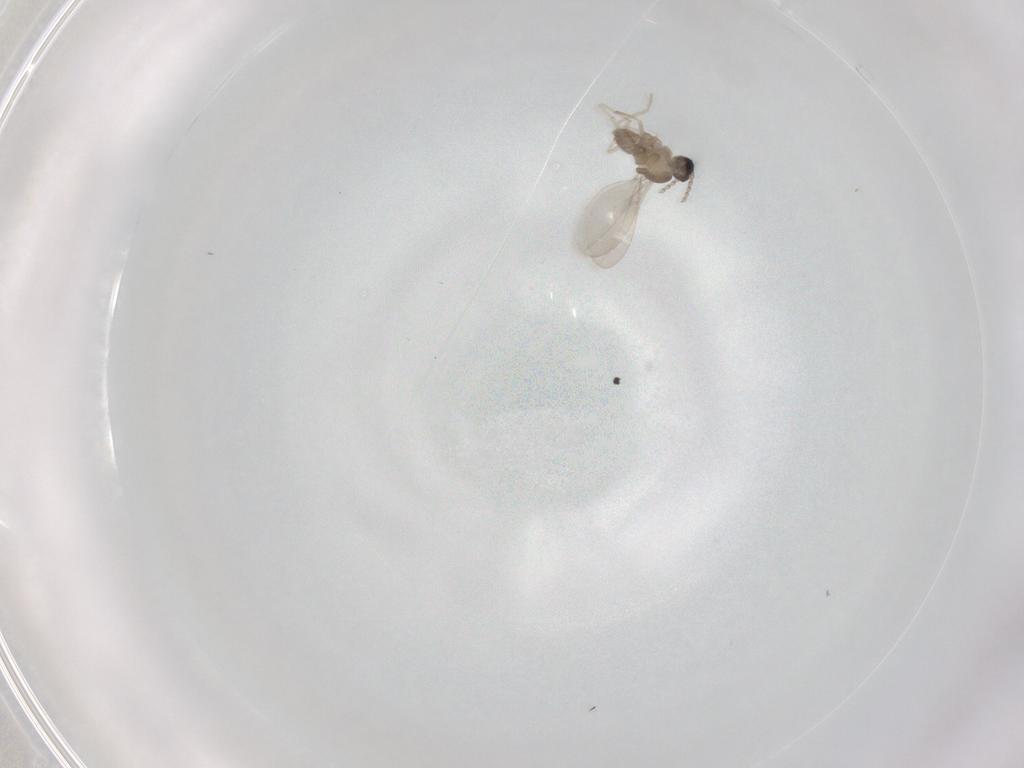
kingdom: Animalia
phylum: Arthropoda
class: Insecta
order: Diptera
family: Cecidomyiidae
